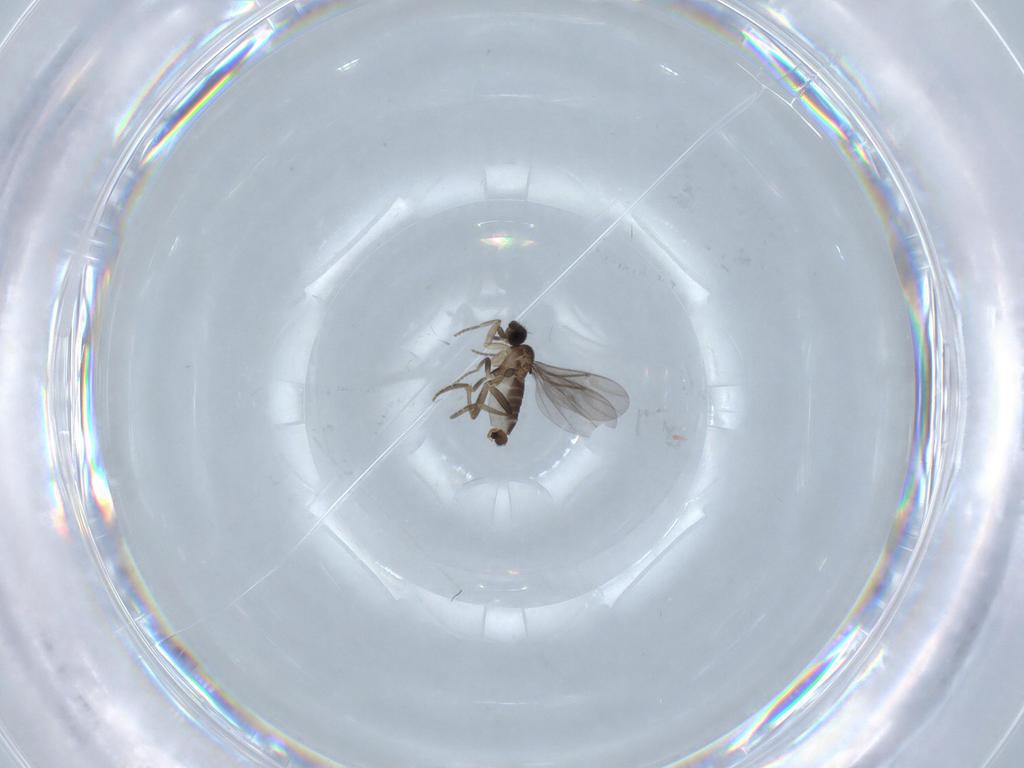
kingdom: Animalia
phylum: Arthropoda
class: Insecta
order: Diptera
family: Phoridae
